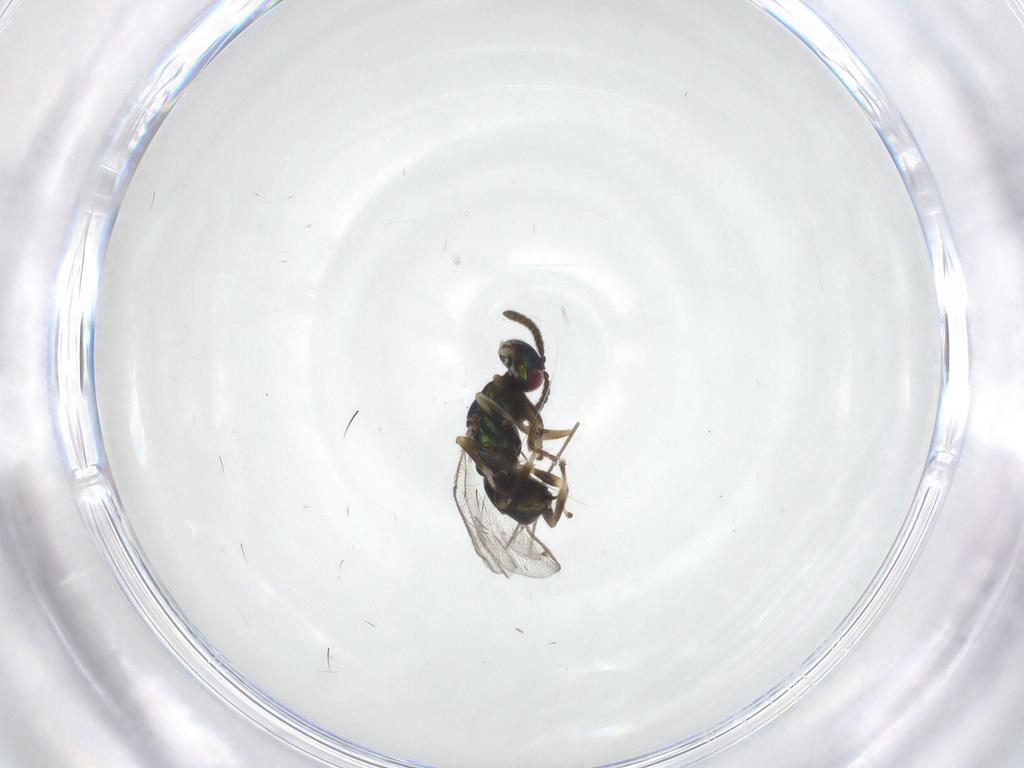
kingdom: Animalia
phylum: Arthropoda
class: Insecta
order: Hymenoptera
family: Torymidae
